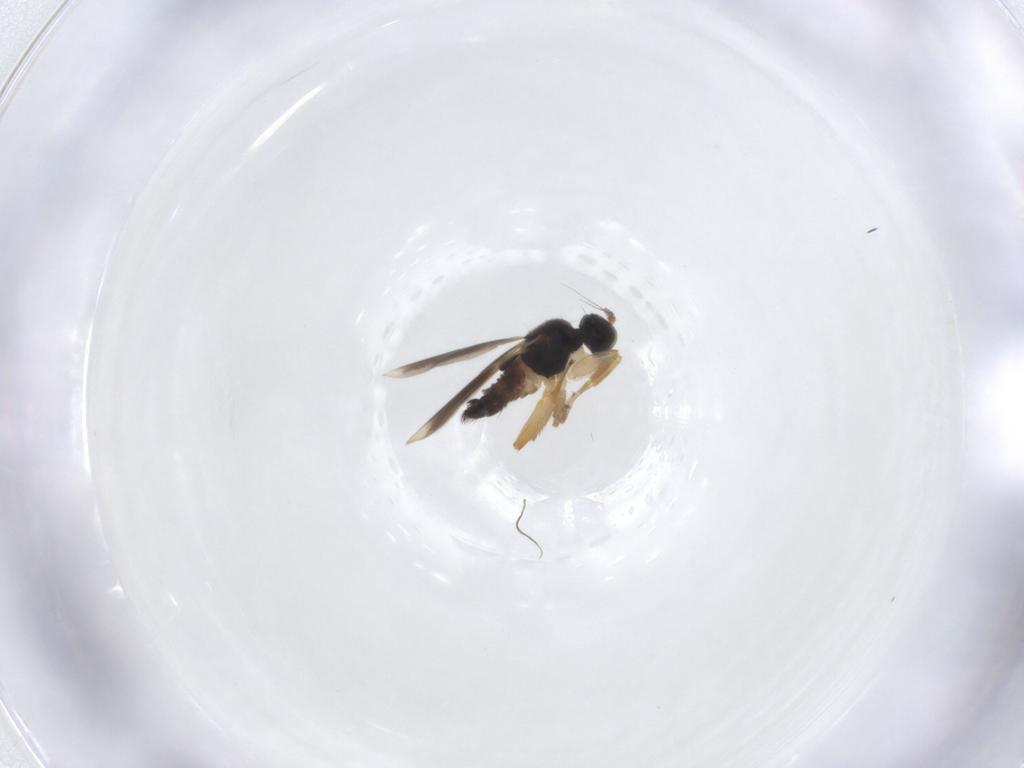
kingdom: Animalia
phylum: Arthropoda
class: Insecta
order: Diptera
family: Hybotidae
